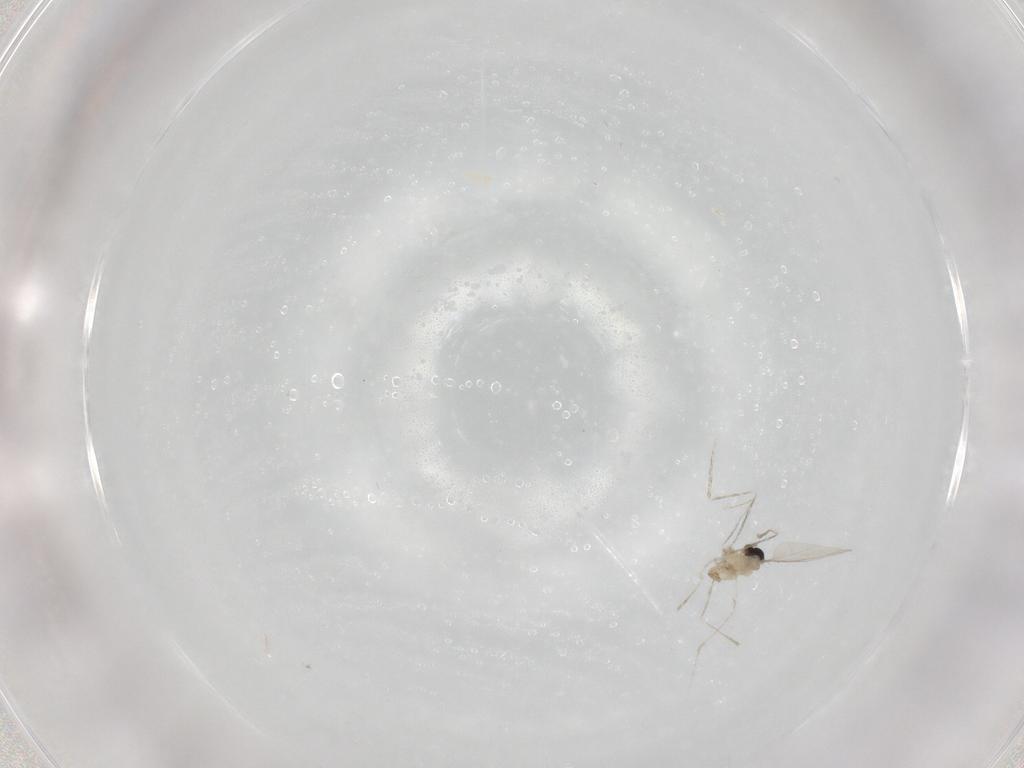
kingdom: Animalia
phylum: Arthropoda
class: Insecta
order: Diptera
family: Cecidomyiidae
